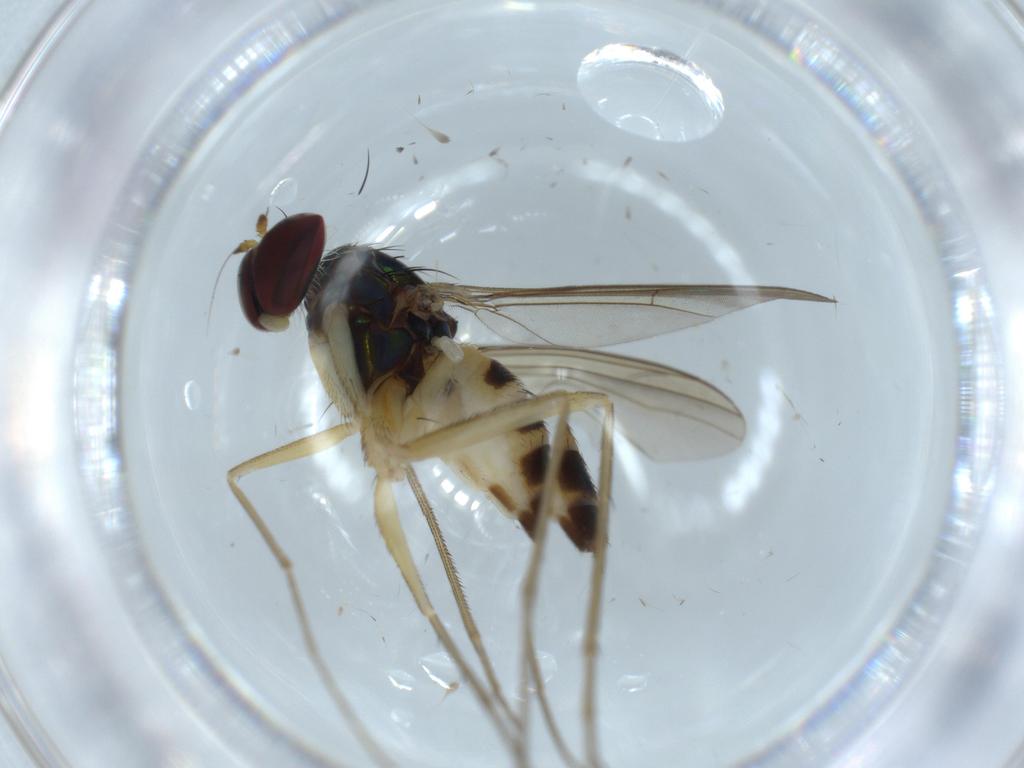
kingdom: Animalia
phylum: Arthropoda
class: Insecta
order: Diptera
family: Dolichopodidae
